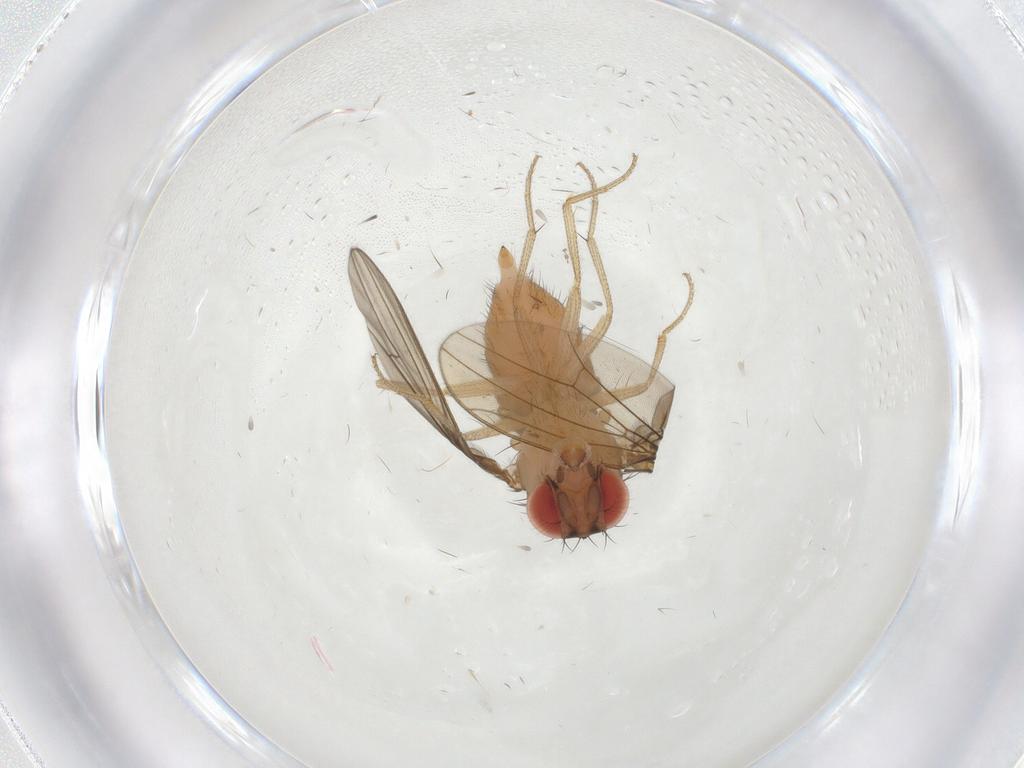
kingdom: Animalia
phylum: Arthropoda
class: Insecta
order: Diptera
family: Drosophilidae
